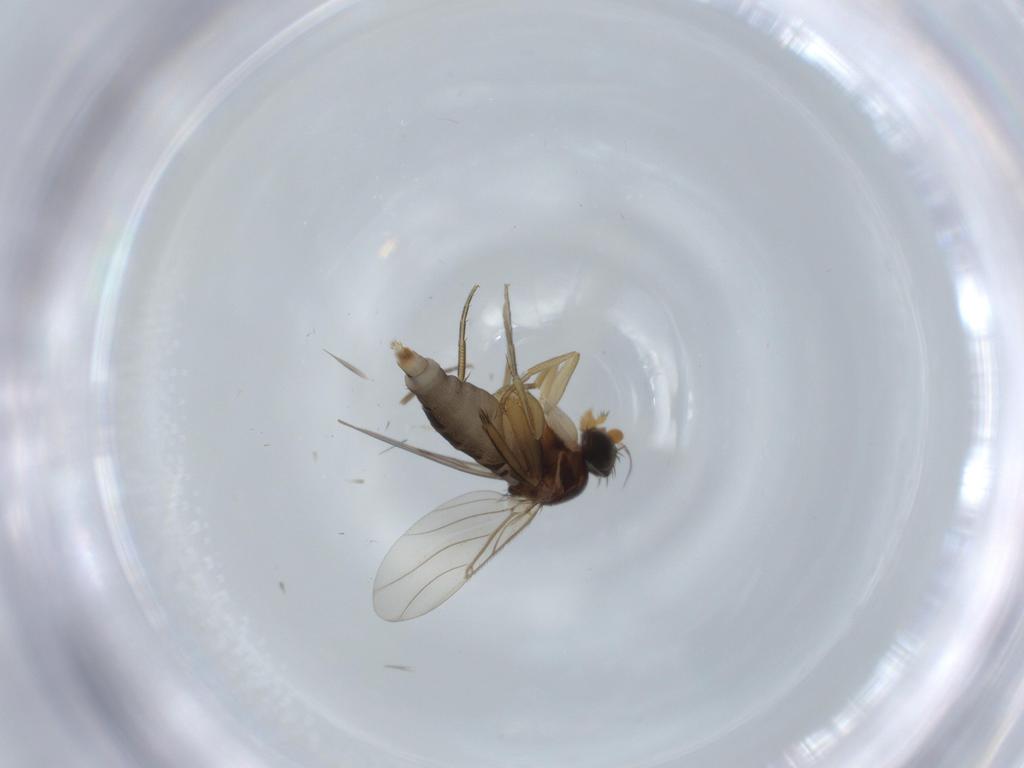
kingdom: Animalia
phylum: Arthropoda
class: Insecta
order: Diptera
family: Phoridae
